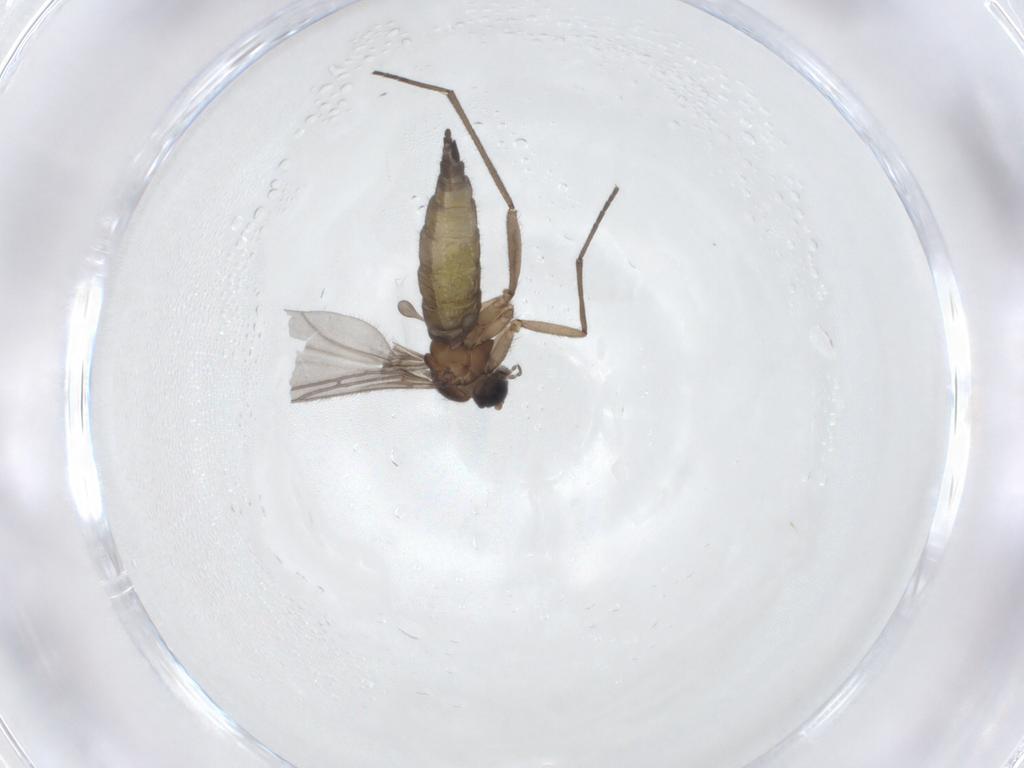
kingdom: Animalia
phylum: Arthropoda
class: Insecta
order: Diptera
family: Sciaridae
